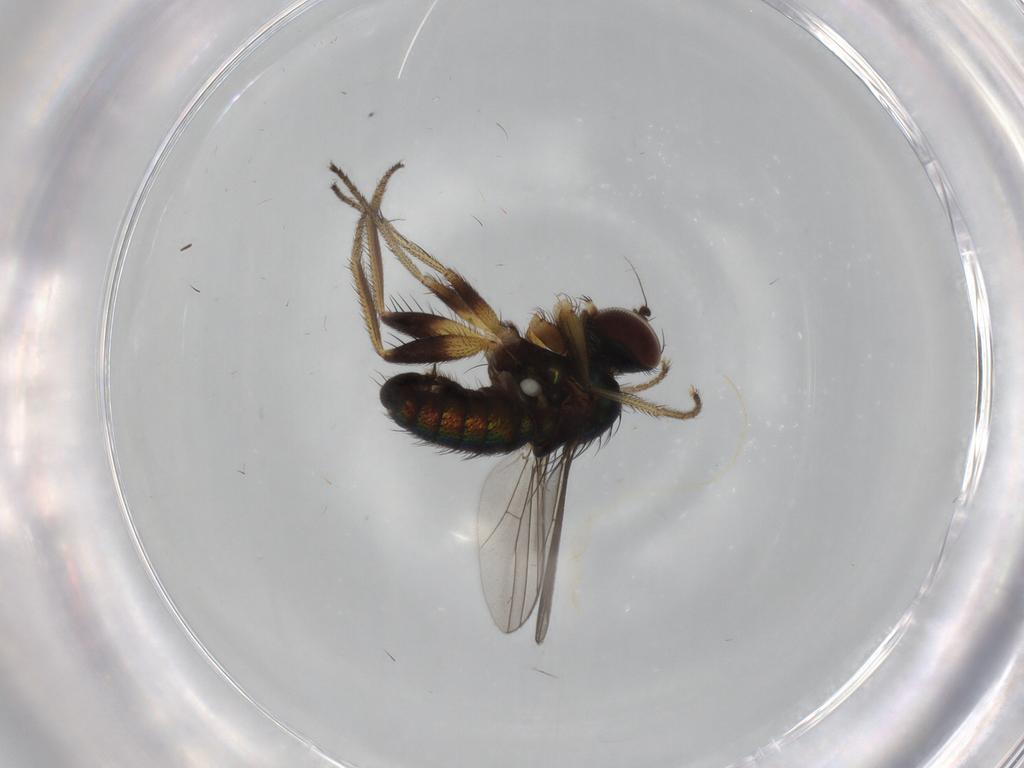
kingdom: Animalia
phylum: Arthropoda
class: Insecta
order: Diptera
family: Dolichopodidae
